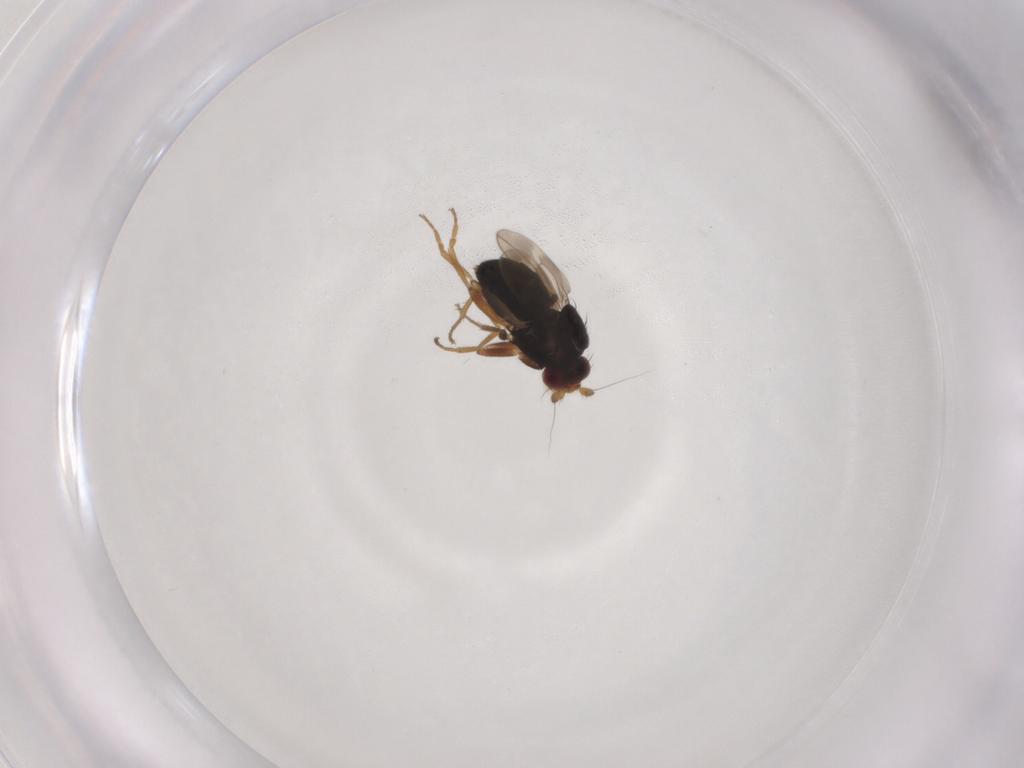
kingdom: Animalia
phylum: Arthropoda
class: Insecta
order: Diptera
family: Sphaeroceridae
